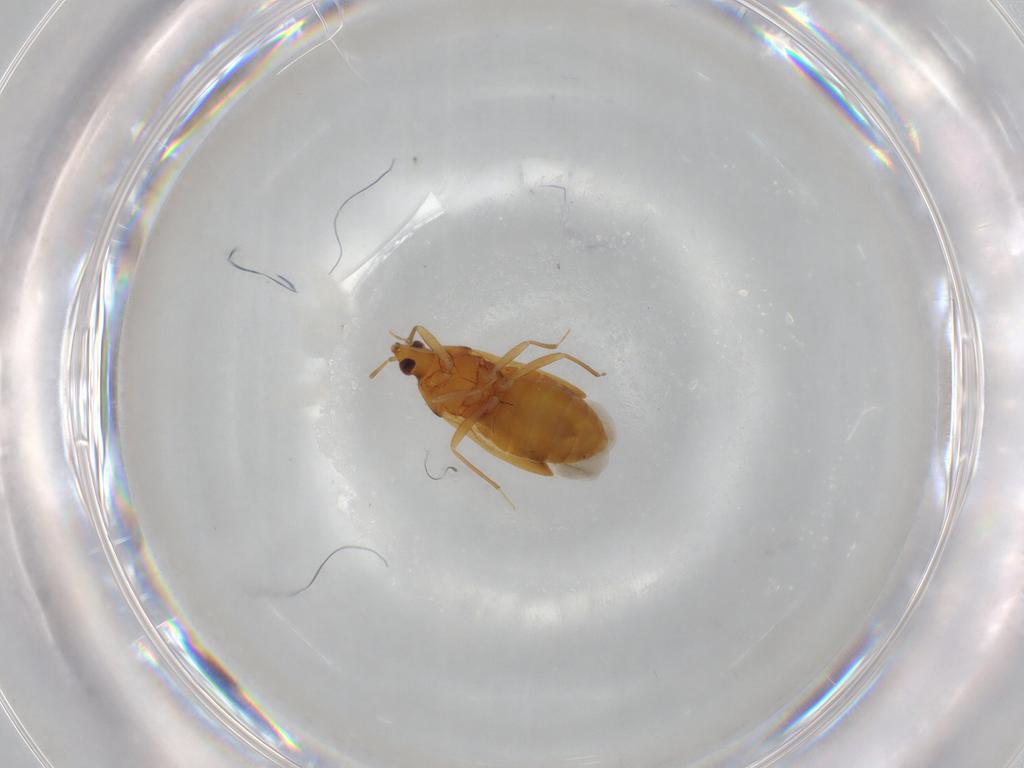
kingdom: Animalia
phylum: Arthropoda
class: Insecta
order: Hemiptera
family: Anthocoridae
